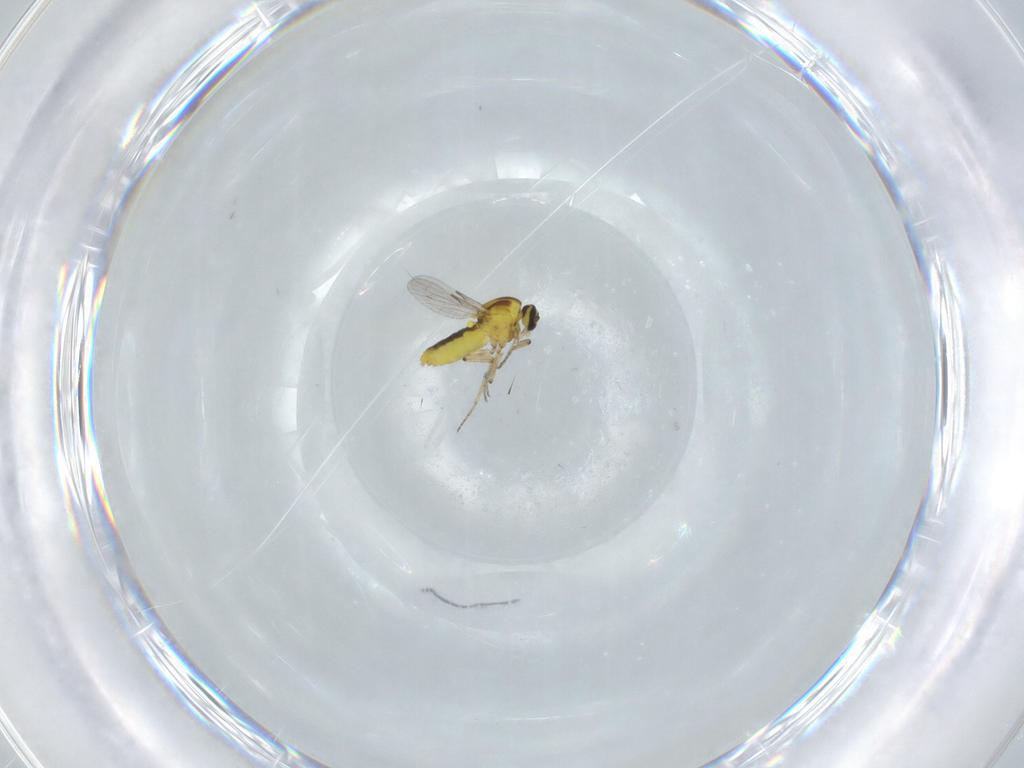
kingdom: Animalia
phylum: Arthropoda
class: Insecta
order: Diptera
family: Ceratopogonidae
